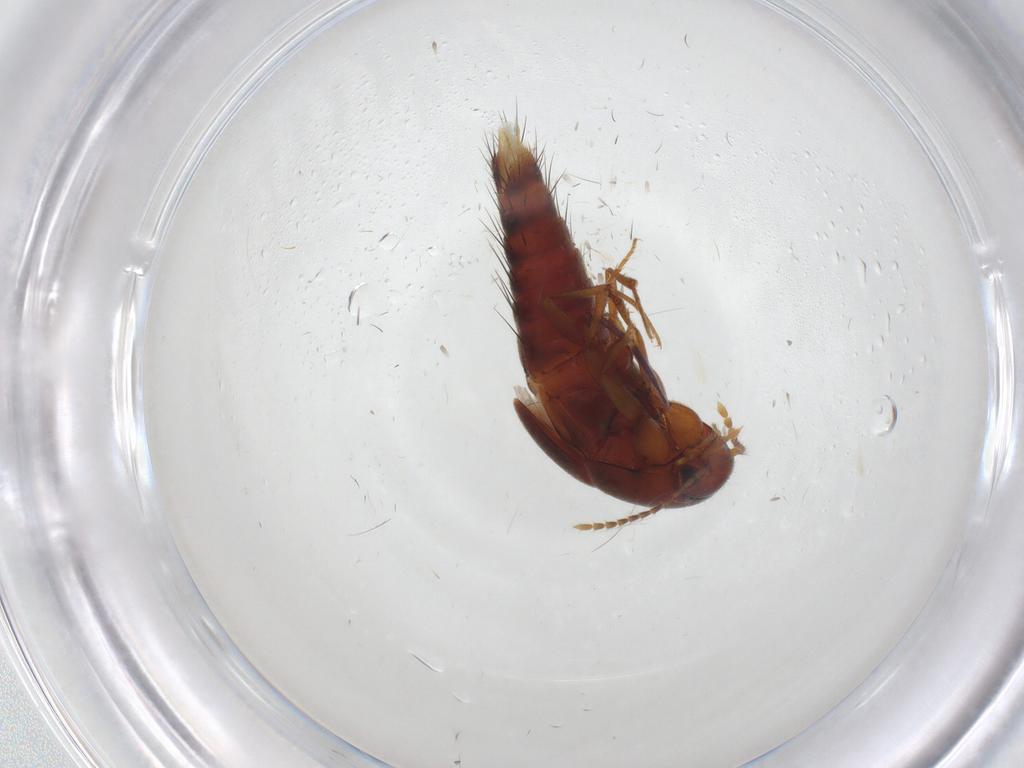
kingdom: Animalia
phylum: Arthropoda
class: Insecta
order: Coleoptera
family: Staphylinidae
